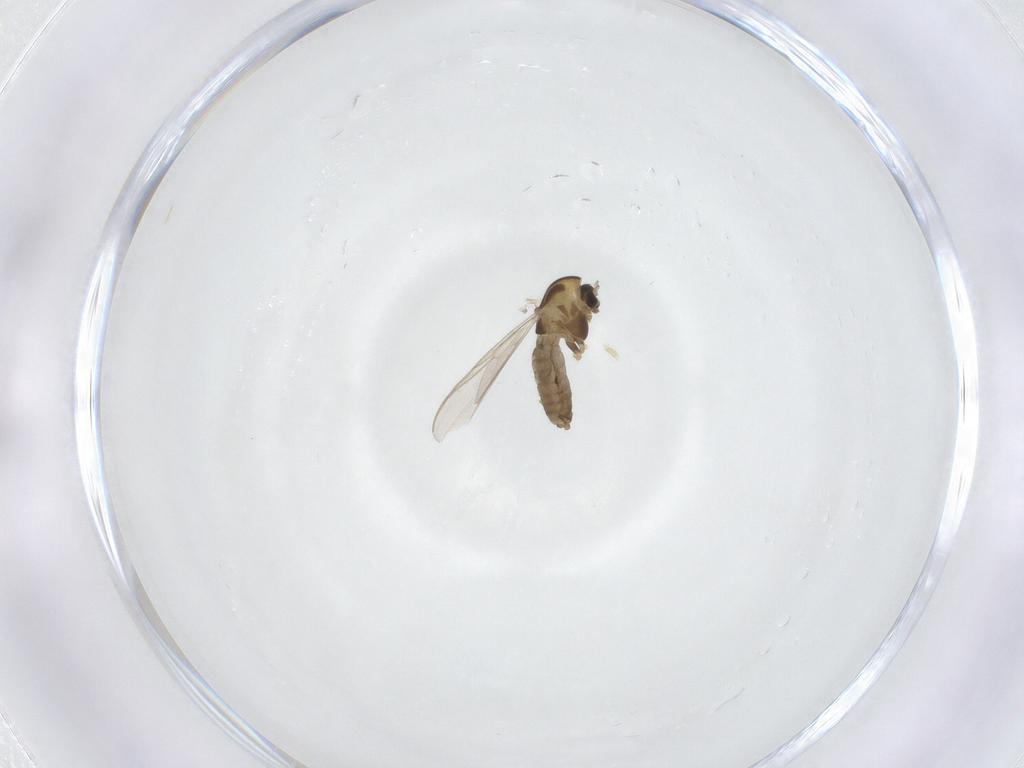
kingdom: Animalia
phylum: Arthropoda
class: Insecta
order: Diptera
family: Chironomidae
